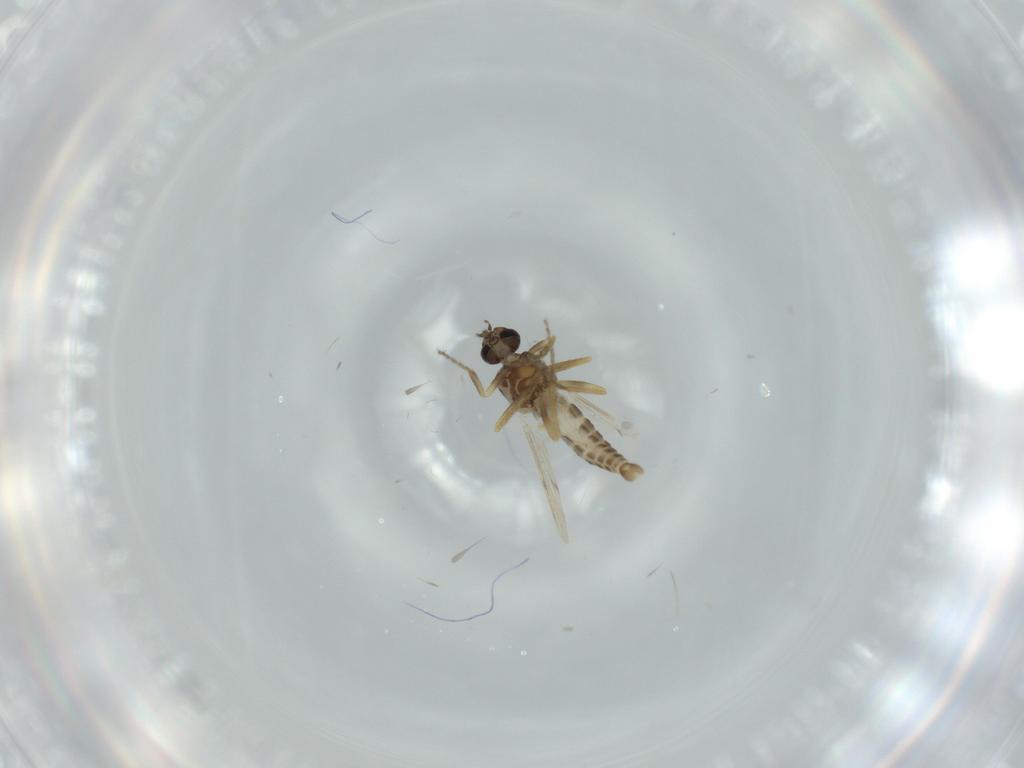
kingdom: Animalia
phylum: Arthropoda
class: Insecta
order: Diptera
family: Ceratopogonidae
